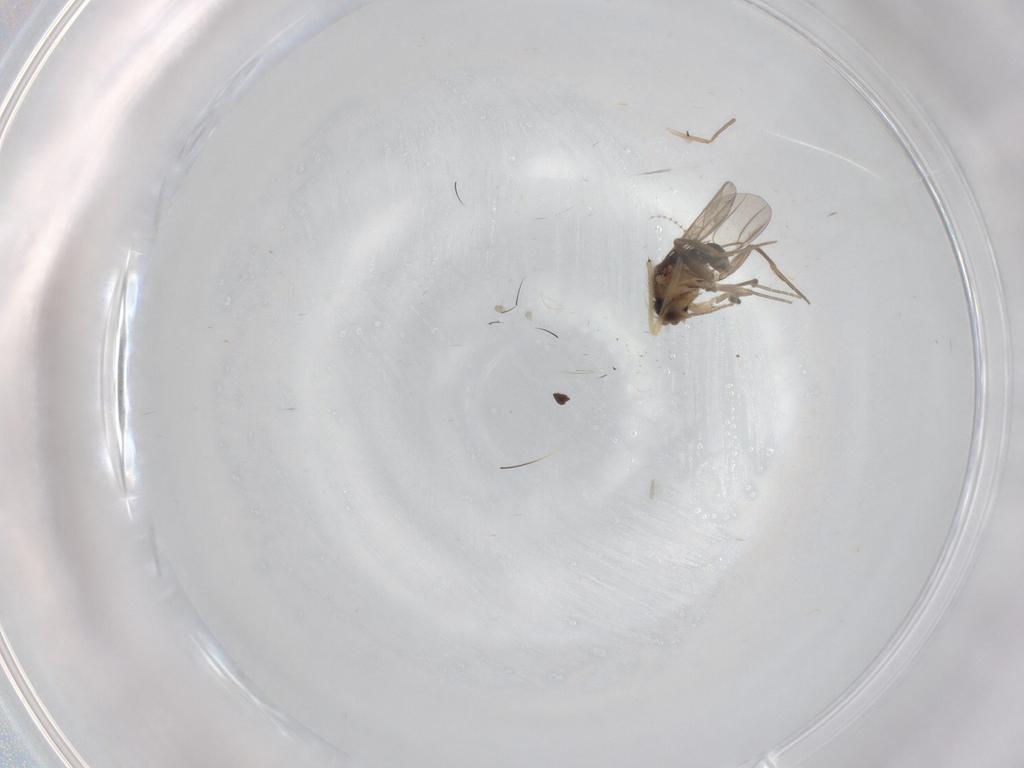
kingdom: Animalia
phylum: Arthropoda
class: Insecta
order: Diptera
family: Phoridae
